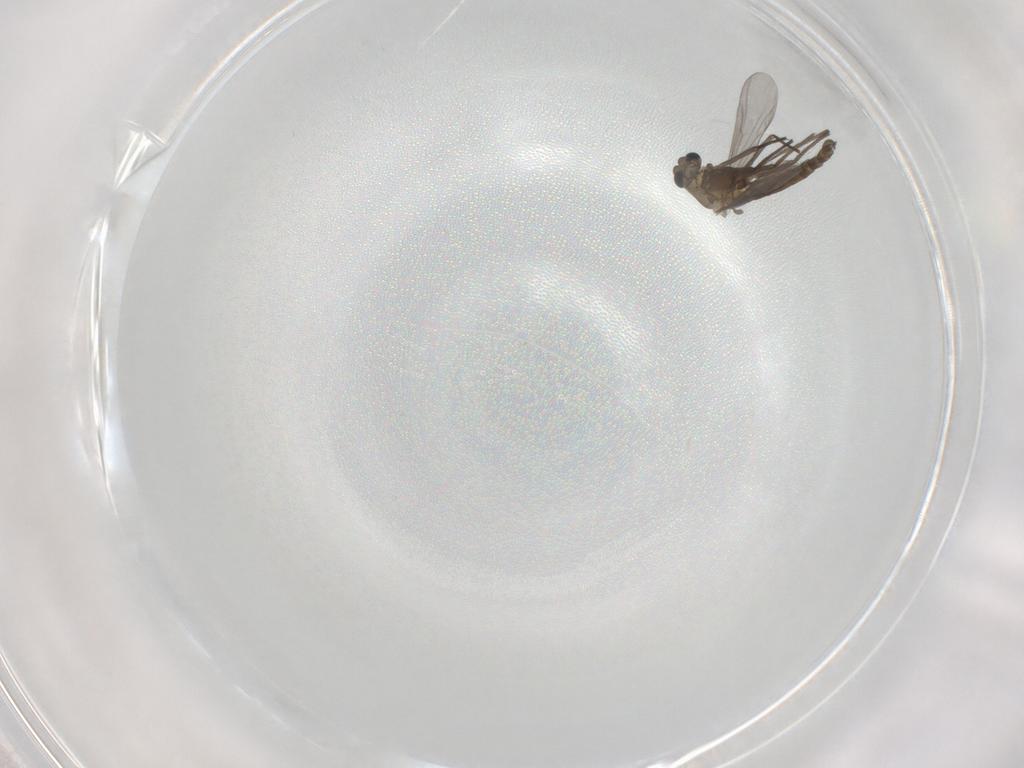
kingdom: Animalia
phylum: Arthropoda
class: Insecta
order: Diptera
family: Chironomidae
